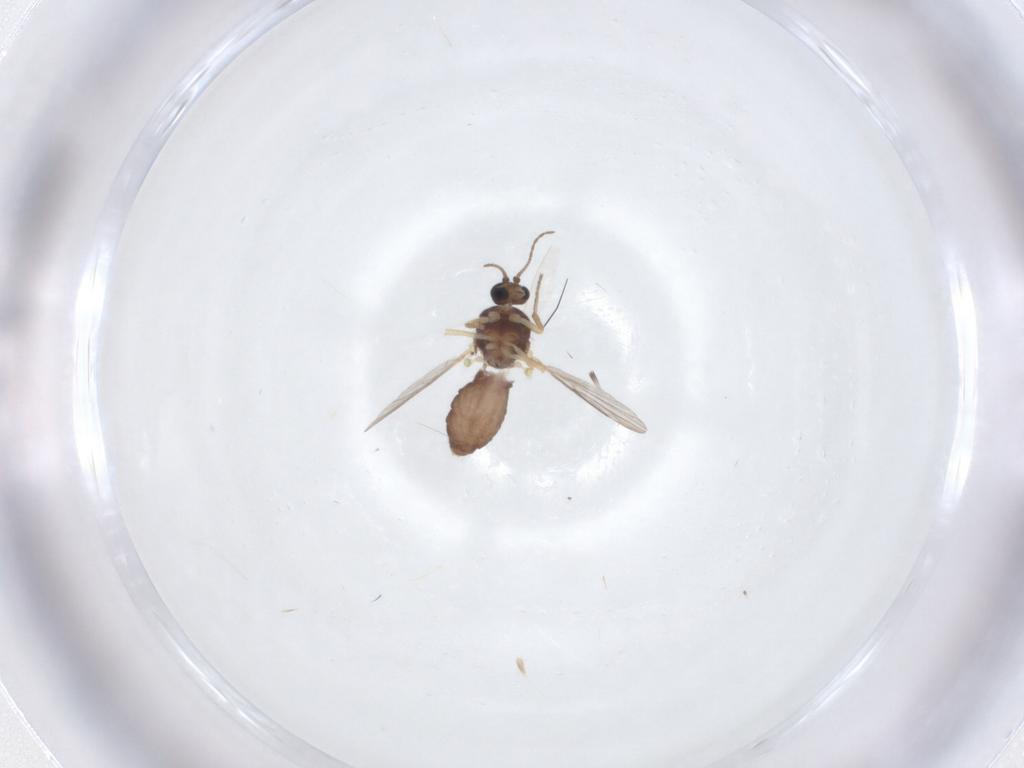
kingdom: Animalia
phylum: Arthropoda
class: Insecta
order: Diptera
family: Ceratopogonidae
